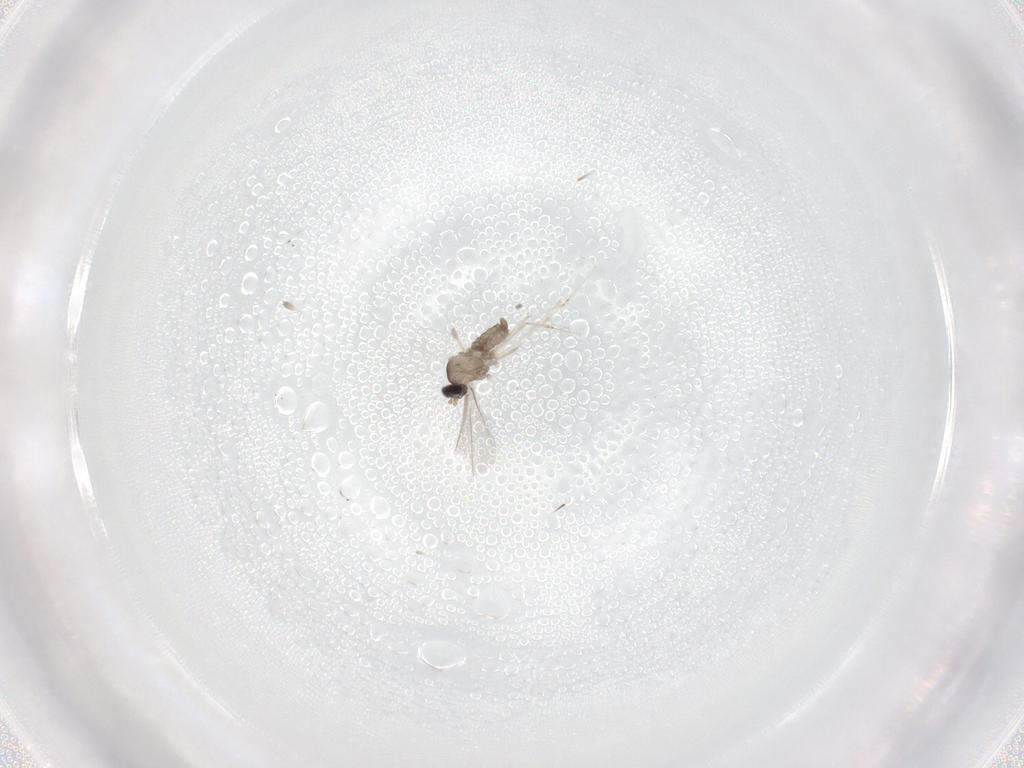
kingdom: Animalia
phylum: Arthropoda
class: Insecta
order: Diptera
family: Cecidomyiidae
